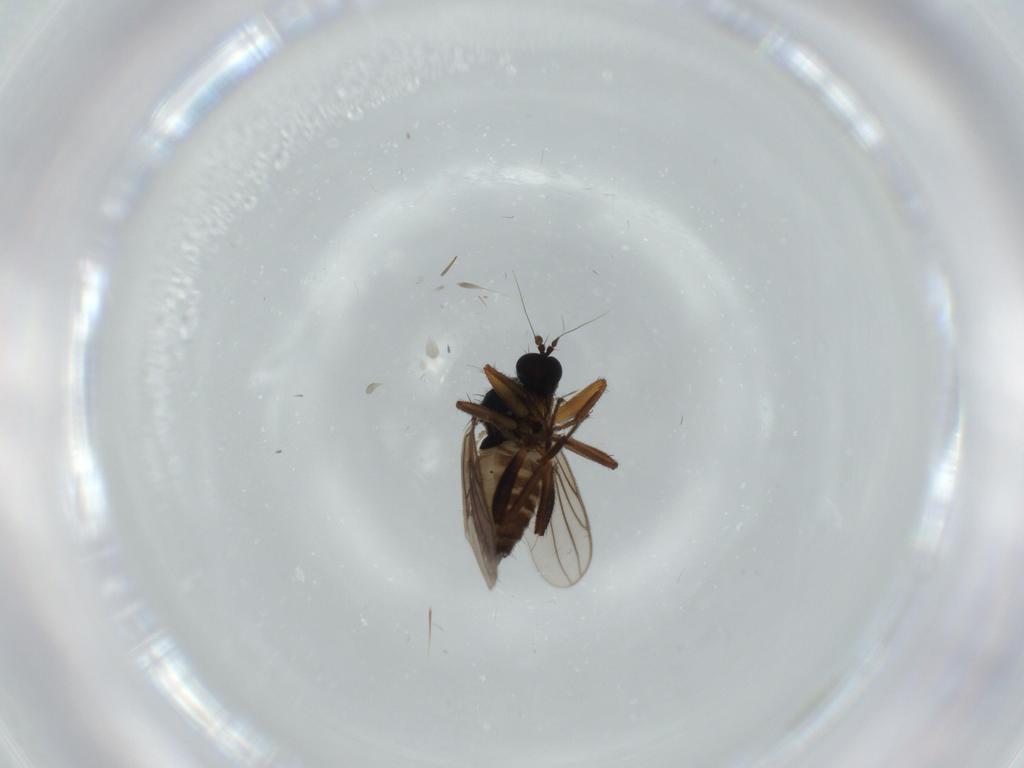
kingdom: Animalia
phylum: Arthropoda
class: Insecta
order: Diptera
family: Hybotidae
